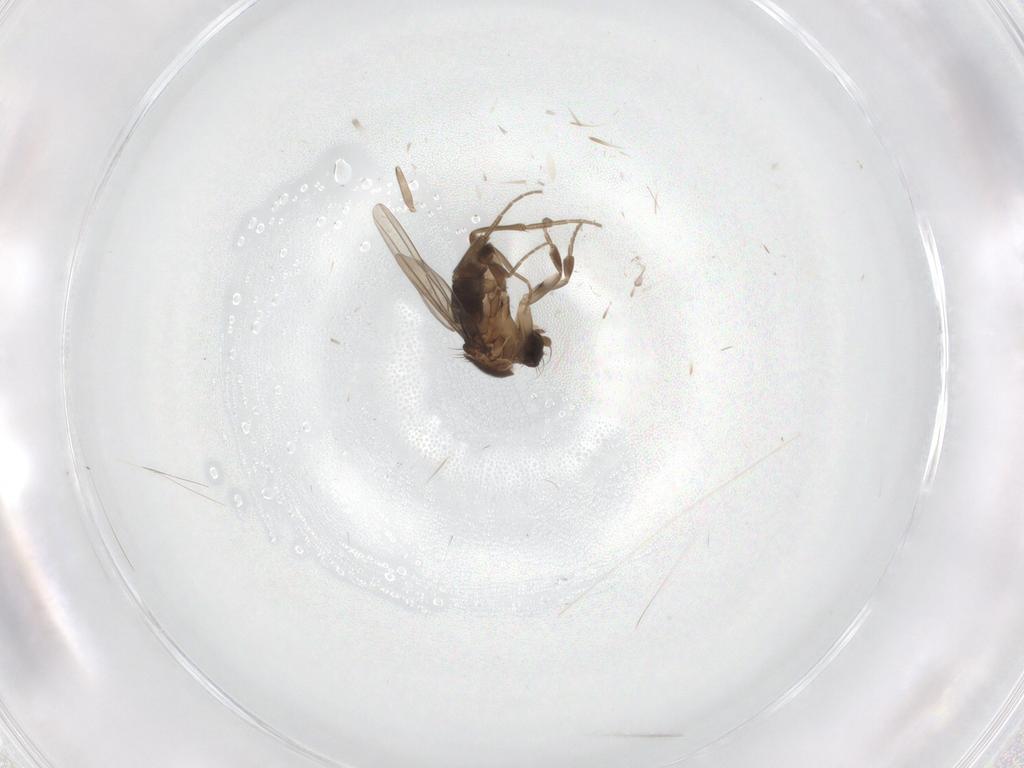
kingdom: Animalia
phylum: Arthropoda
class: Insecta
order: Diptera
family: Phoridae
